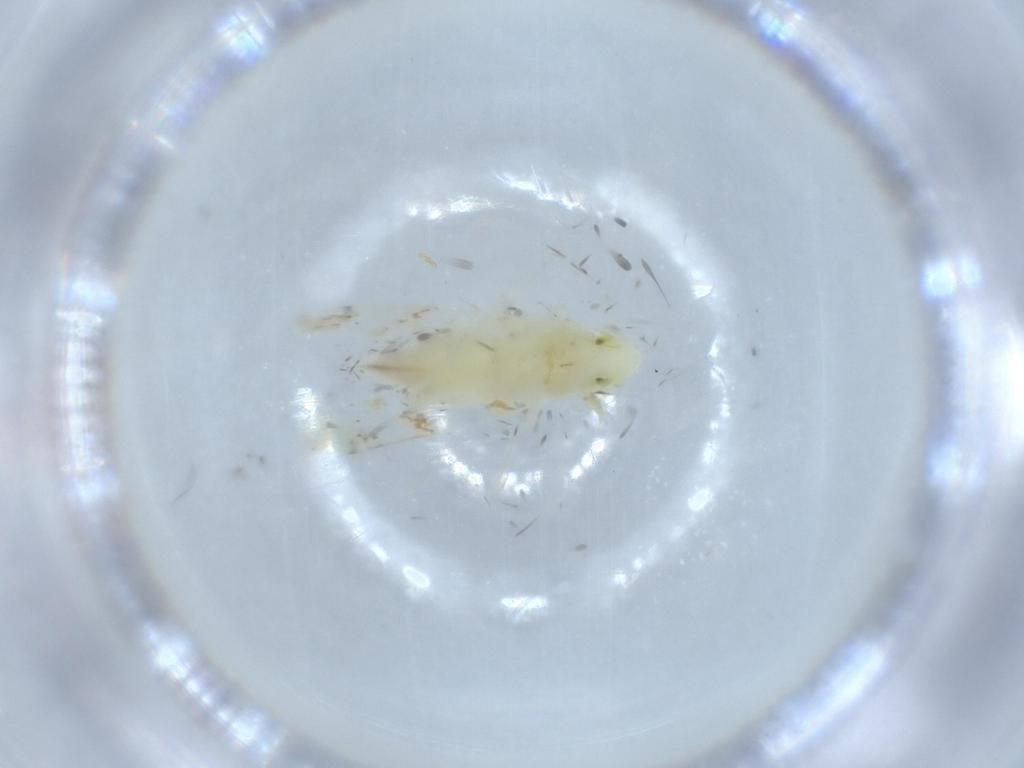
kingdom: Animalia
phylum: Arthropoda
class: Insecta
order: Hemiptera
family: Cicadellidae
